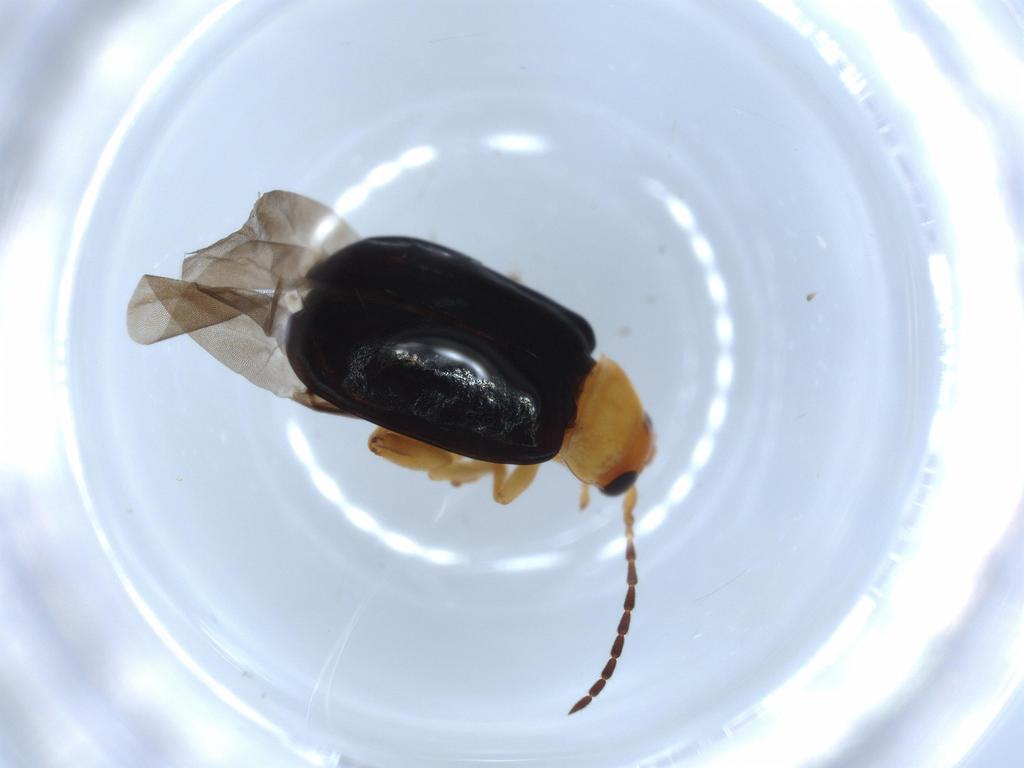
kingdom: Animalia
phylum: Arthropoda
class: Insecta
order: Coleoptera
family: Chrysomelidae
